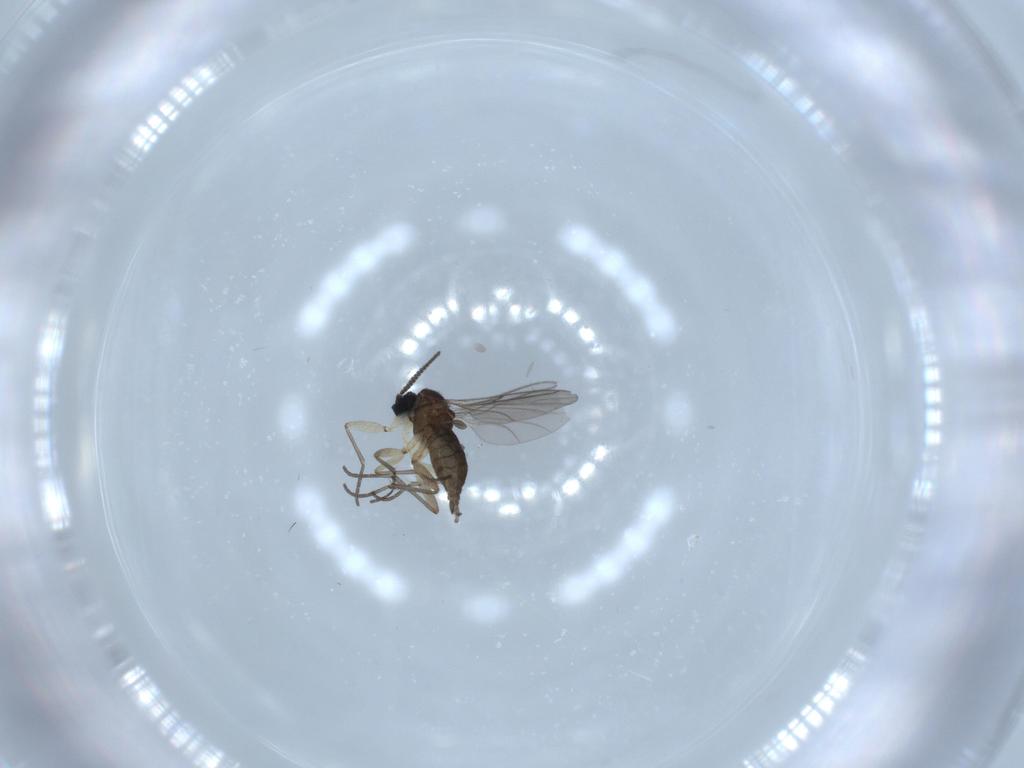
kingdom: Animalia
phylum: Arthropoda
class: Insecta
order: Diptera
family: Sciaridae
